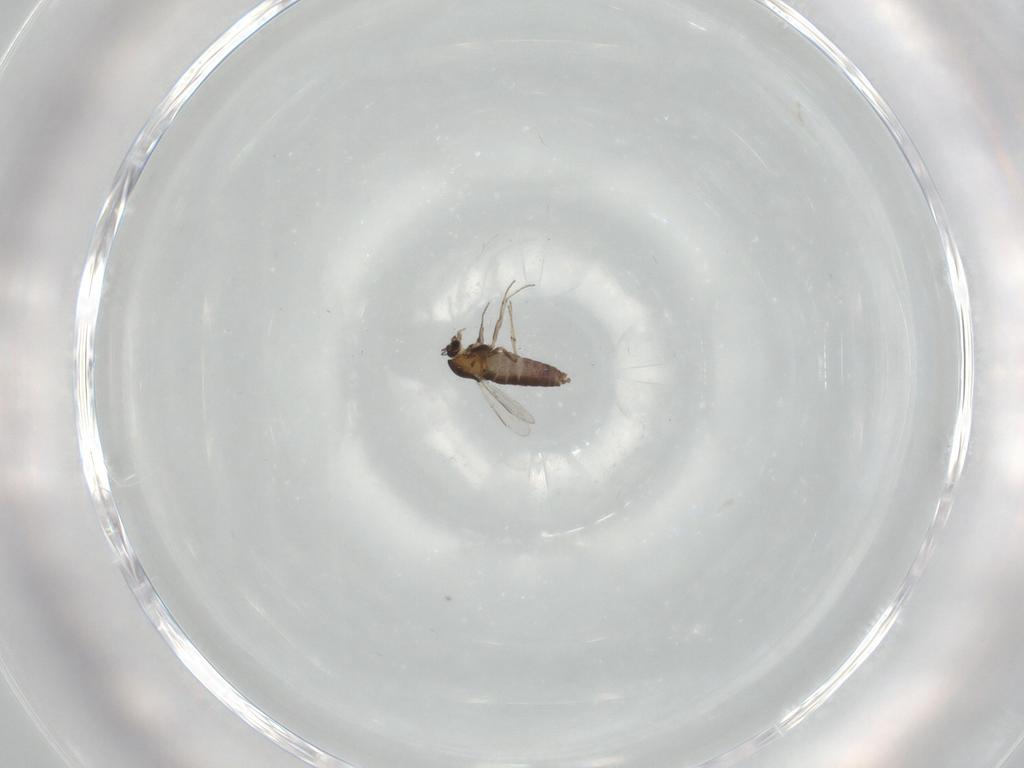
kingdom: Animalia
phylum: Arthropoda
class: Insecta
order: Diptera
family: Chironomidae
